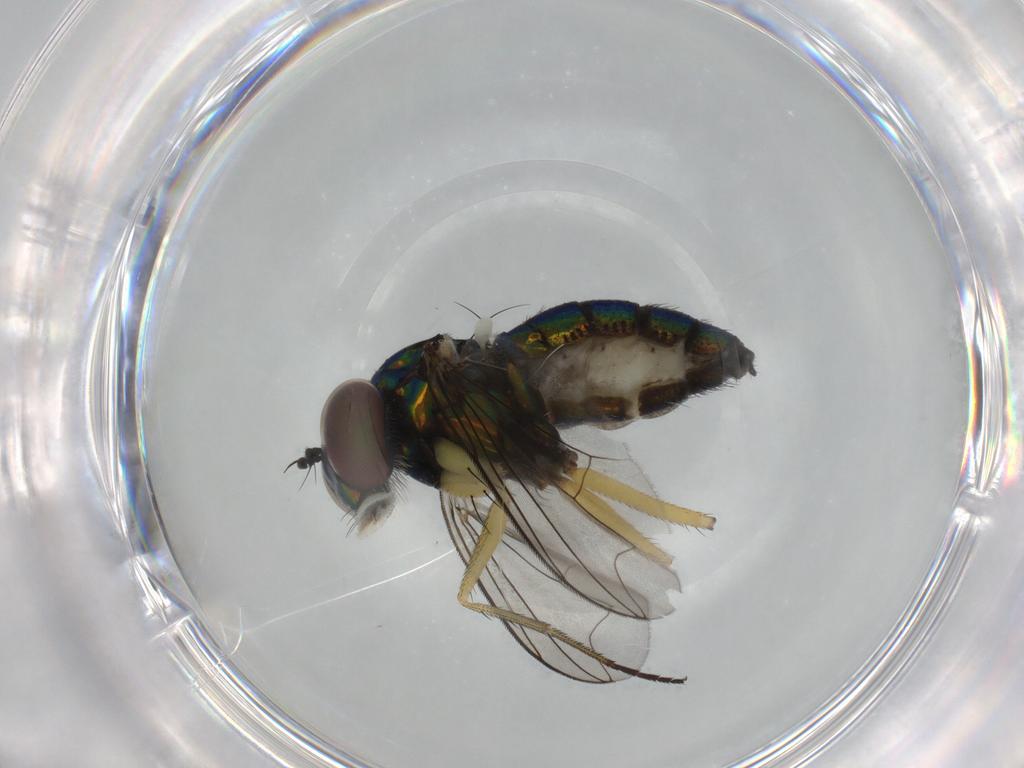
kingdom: Animalia
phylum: Arthropoda
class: Insecta
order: Diptera
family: Dolichopodidae
